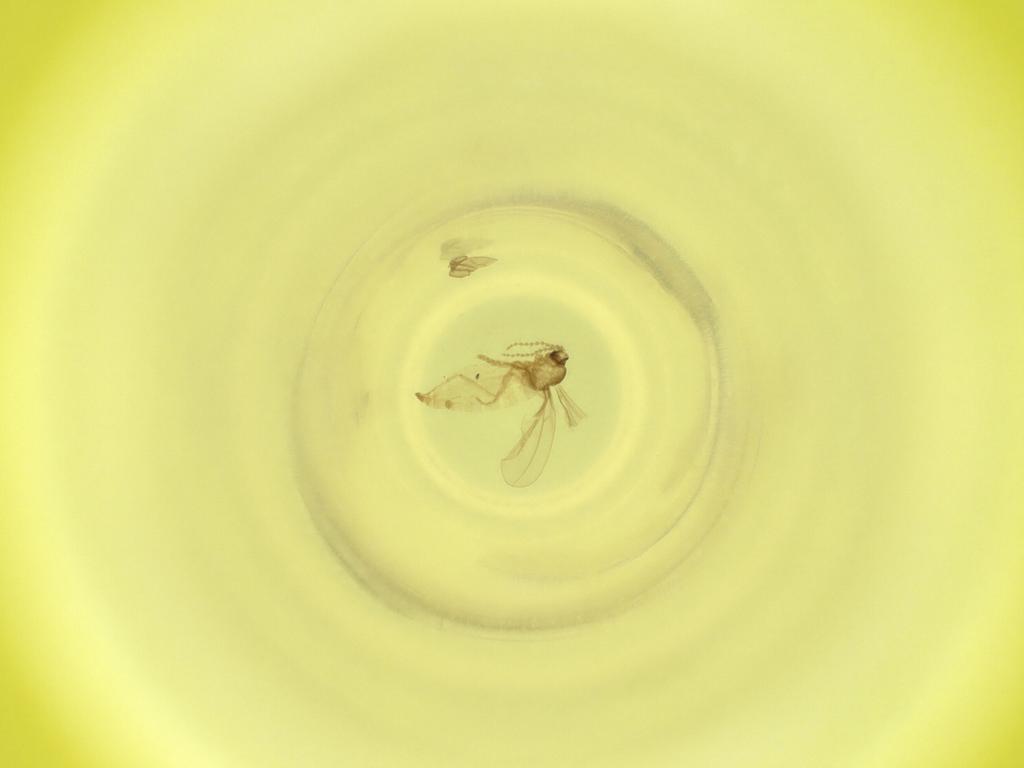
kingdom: Animalia
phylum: Arthropoda
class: Insecta
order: Diptera
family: Cecidomyiidae
